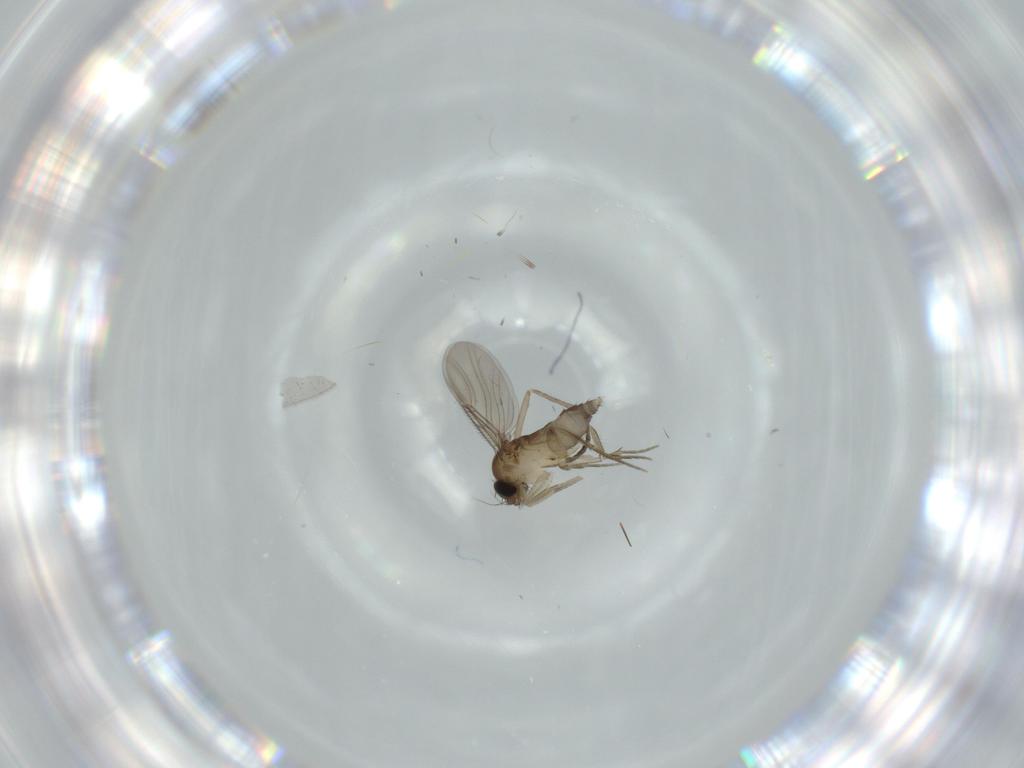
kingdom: Animalia
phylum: Arthropoda
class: Insecta
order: Diptera
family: Phoridae
